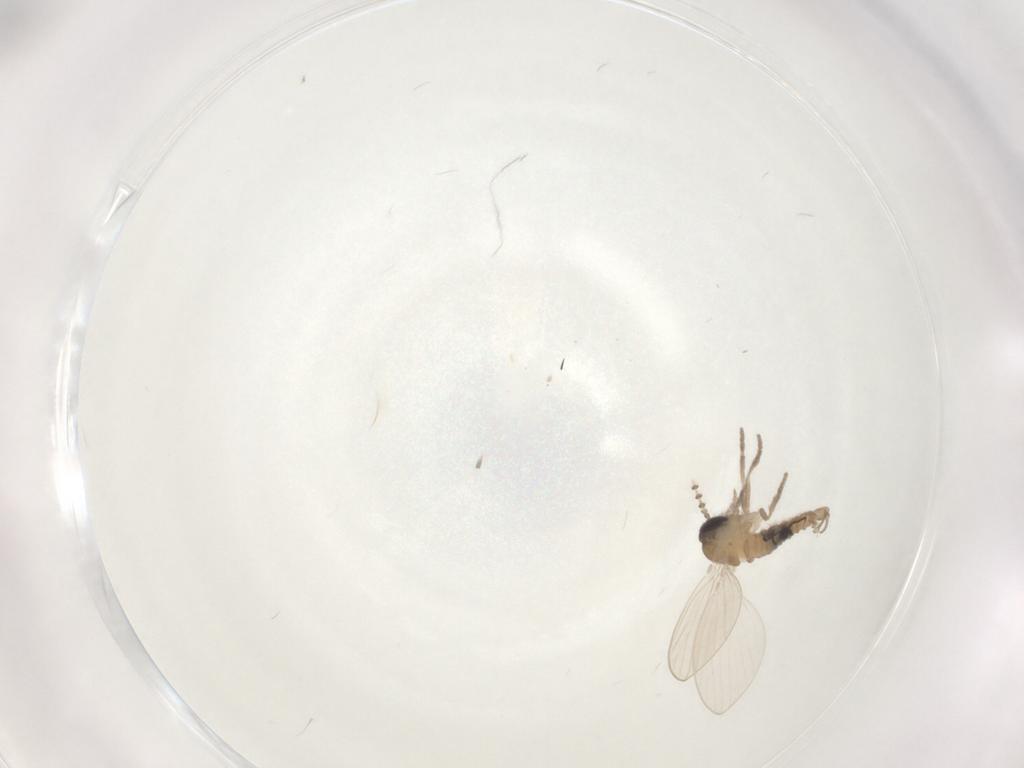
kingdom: Animalia
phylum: Arthropoda
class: Insecta
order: Diptera
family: Psychodidae
